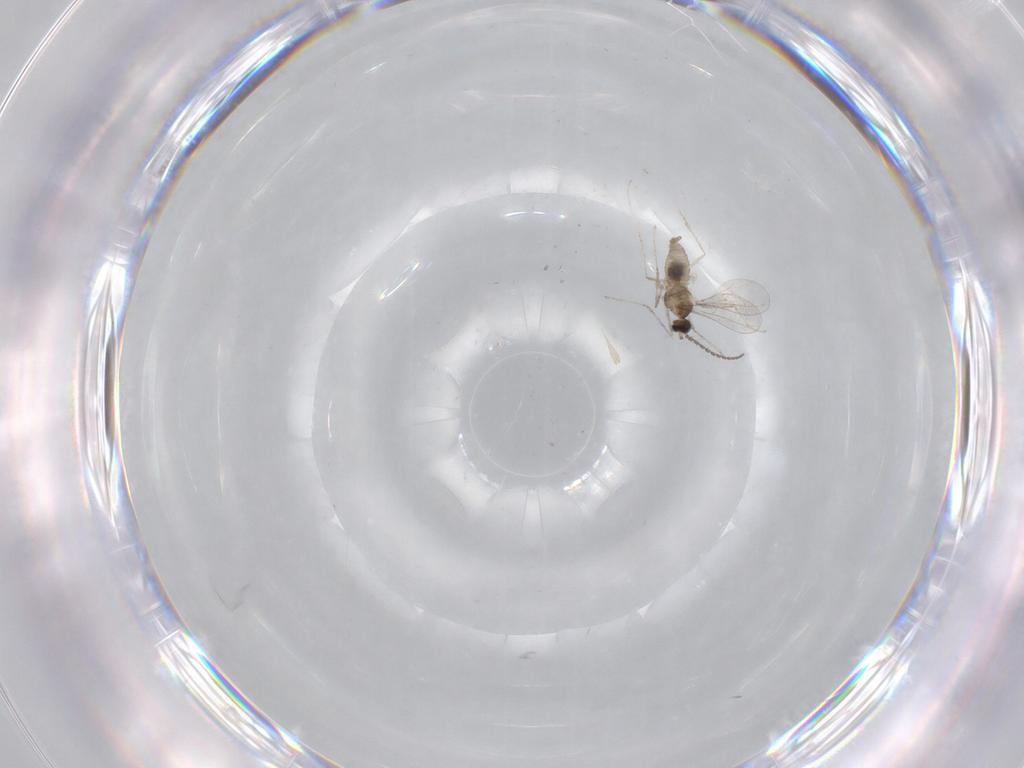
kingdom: Animalia
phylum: Arthropoda
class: Insecta
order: Diptera
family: Cecidomyiidae
